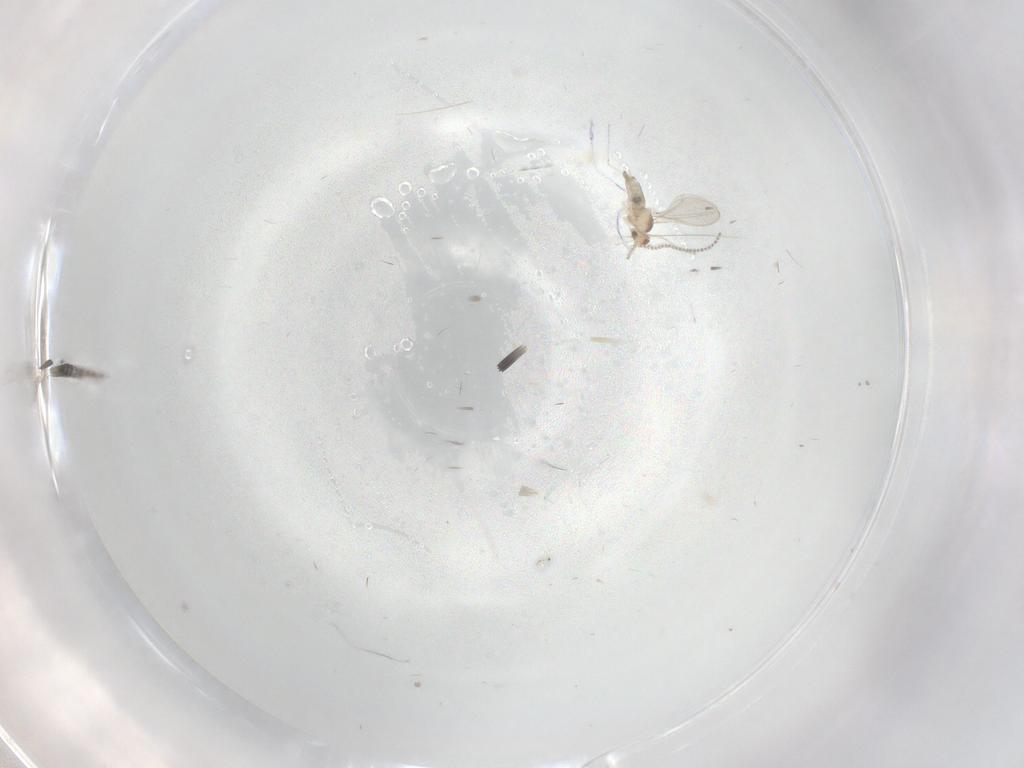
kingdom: Animalia
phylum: Arthropoda
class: Insecta
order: Diptera
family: Cecidomyiidae
